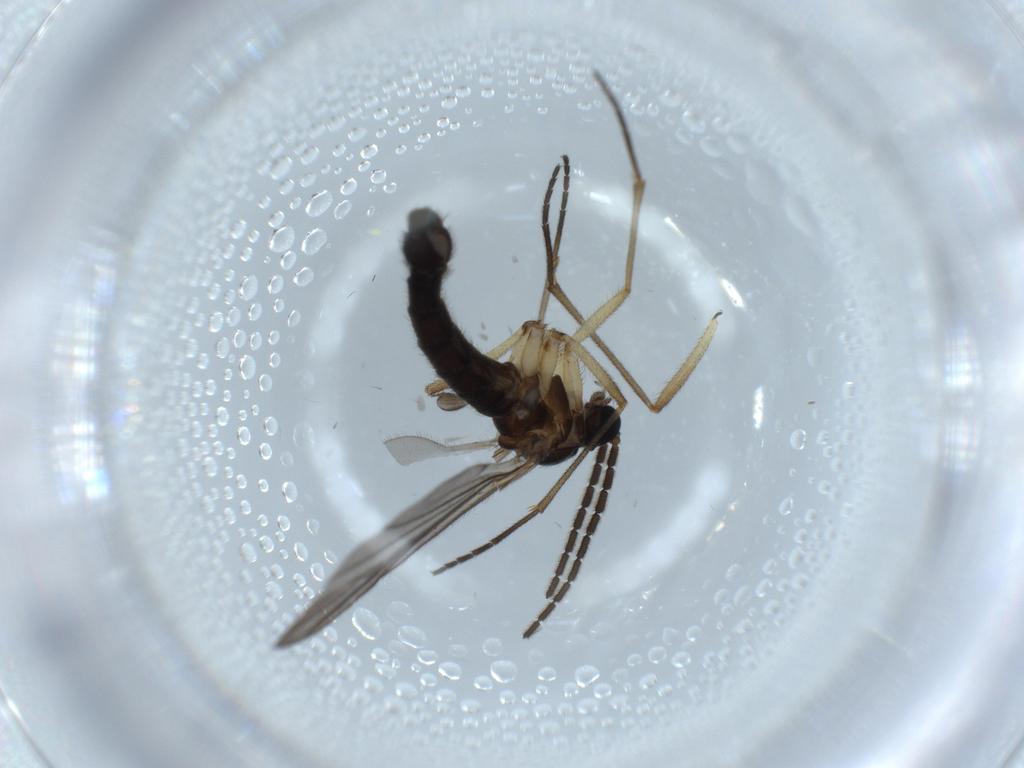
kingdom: Animalia
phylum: Arthropoda
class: Insecta
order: Diptera
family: Sciaridae
